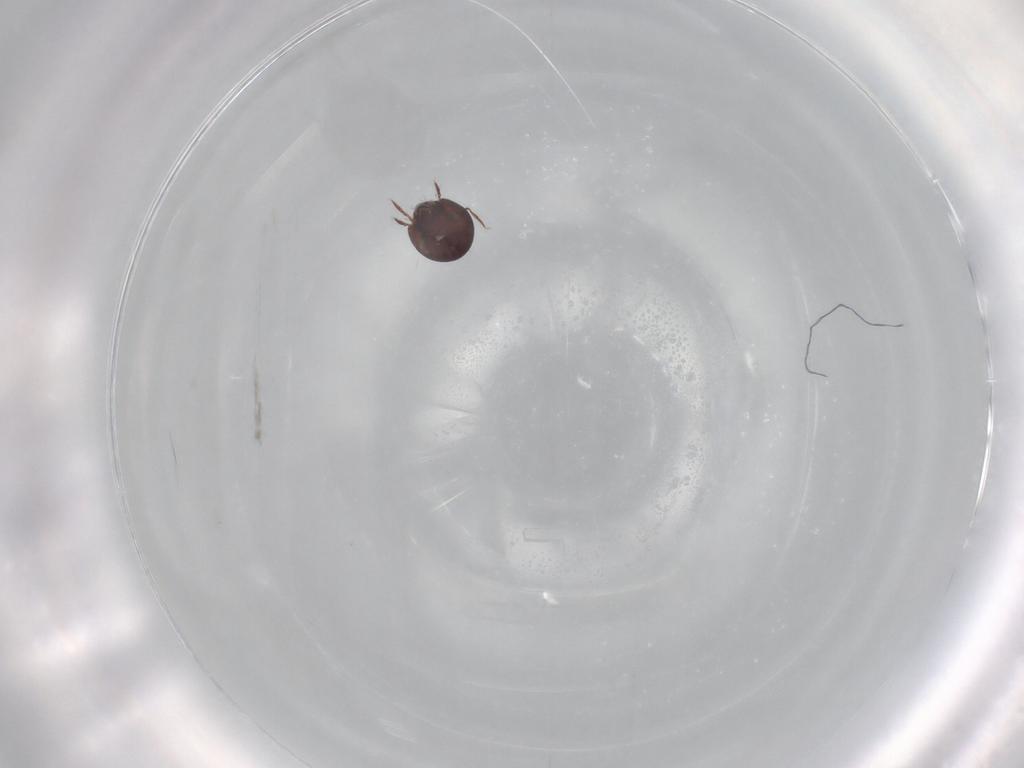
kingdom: Animalia
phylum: Arthropoda
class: Arachnida
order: Sarcoptiformes
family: Humerobatidae
